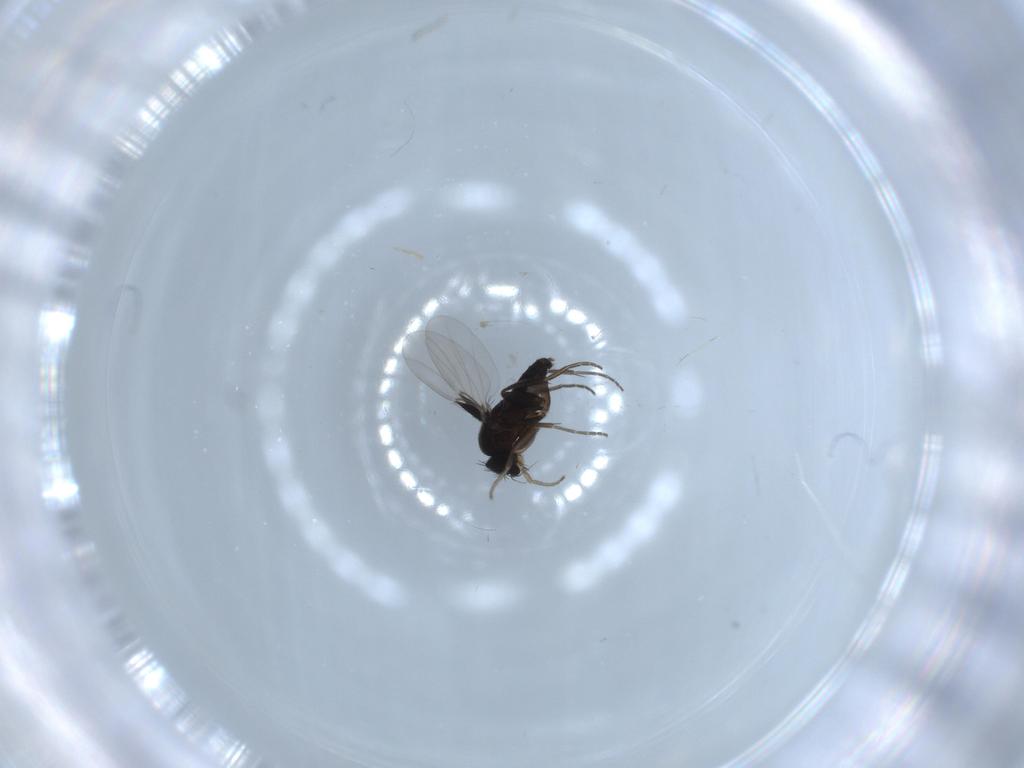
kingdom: Animalia
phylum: Arthropoda
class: Insecta
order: Diptera
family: Phoridae
